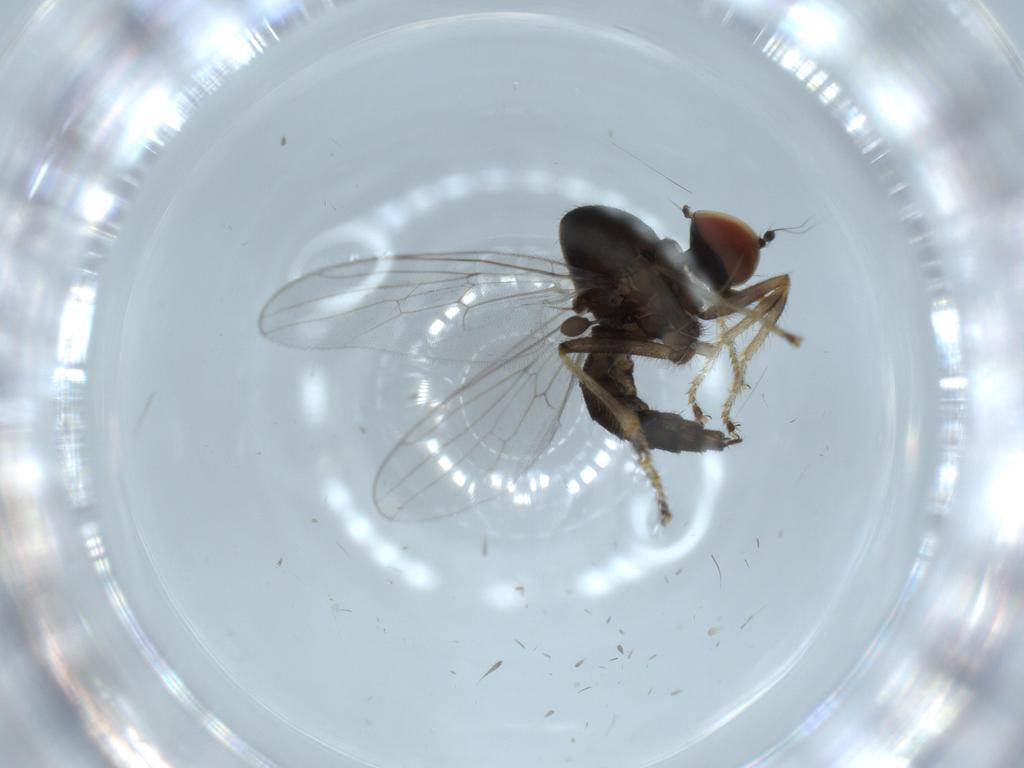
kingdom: Animalia
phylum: Arthropoda
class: Insecta
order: Diptera
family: Hybotidae
